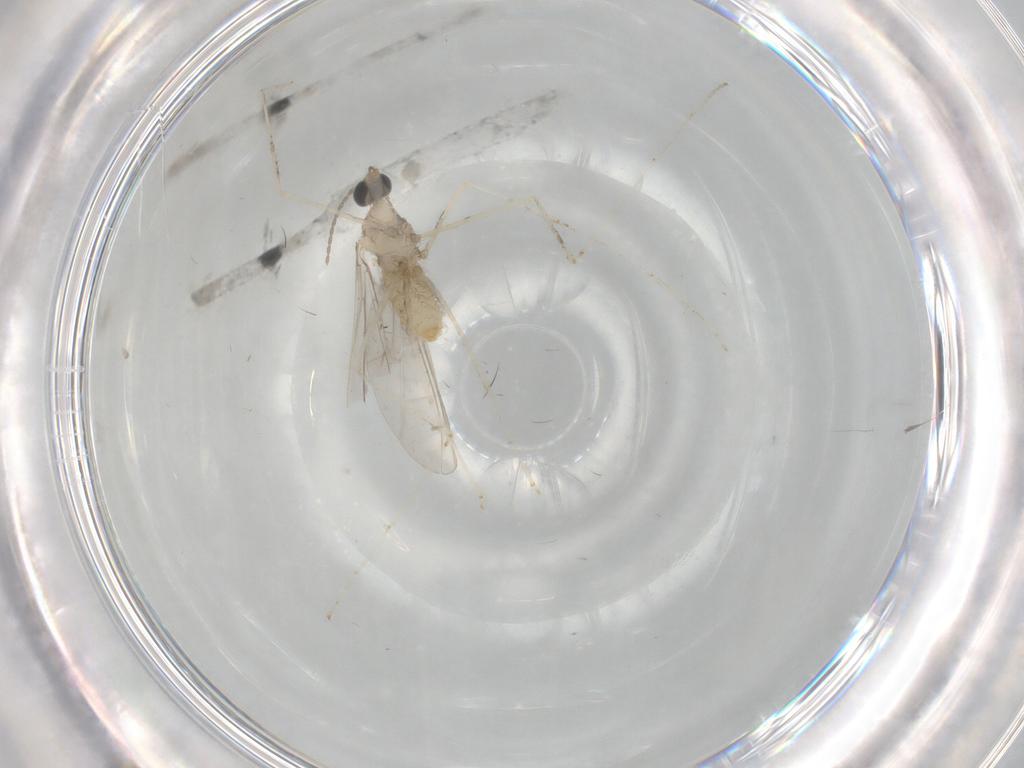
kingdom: Animalia
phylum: Arthropoda
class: Insecta
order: Diptera
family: Cecidomyiidae
